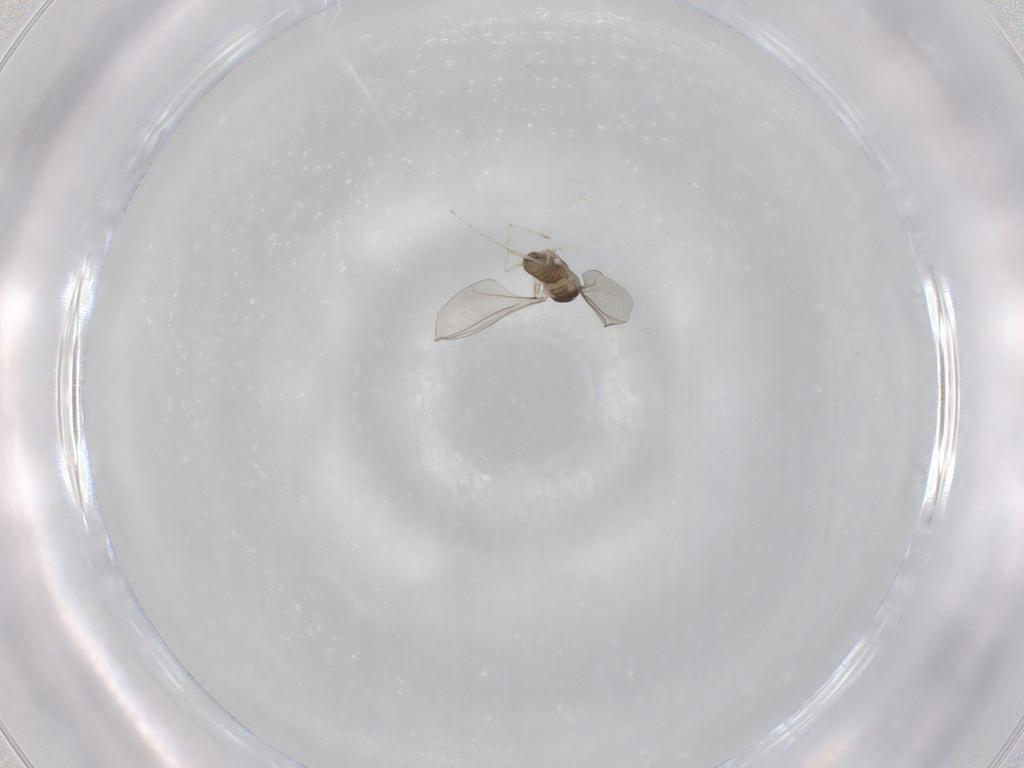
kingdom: Animalia
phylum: Arthropoda
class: Insecta
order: Diptera
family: Cecidomyiidae
